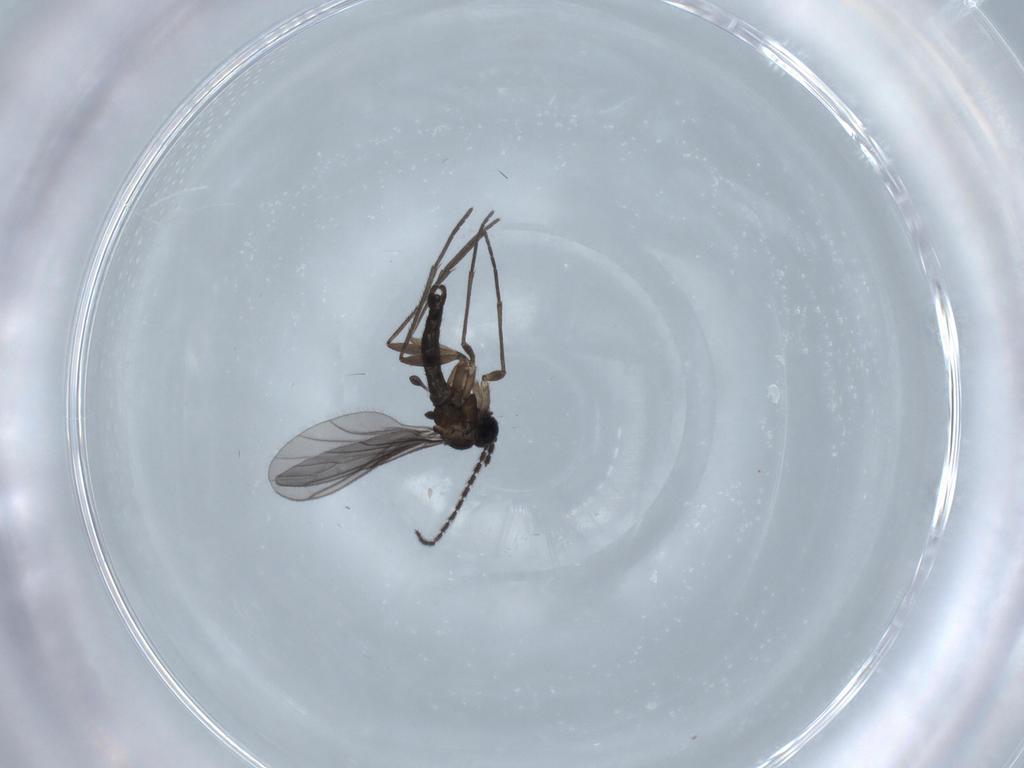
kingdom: Animalia
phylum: Arthropoda
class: Insecta
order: Diptera
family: Sciaridae
